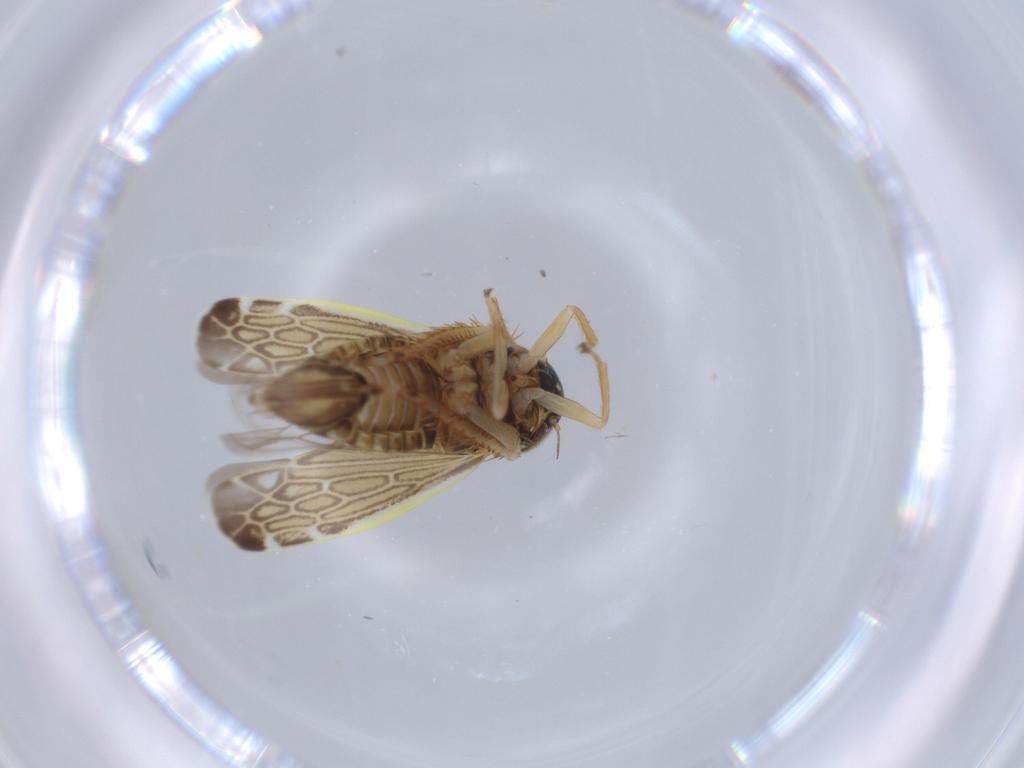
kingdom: Animalia
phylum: Arthropoda
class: Insecta
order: Hemiptera
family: Cicadellidae
